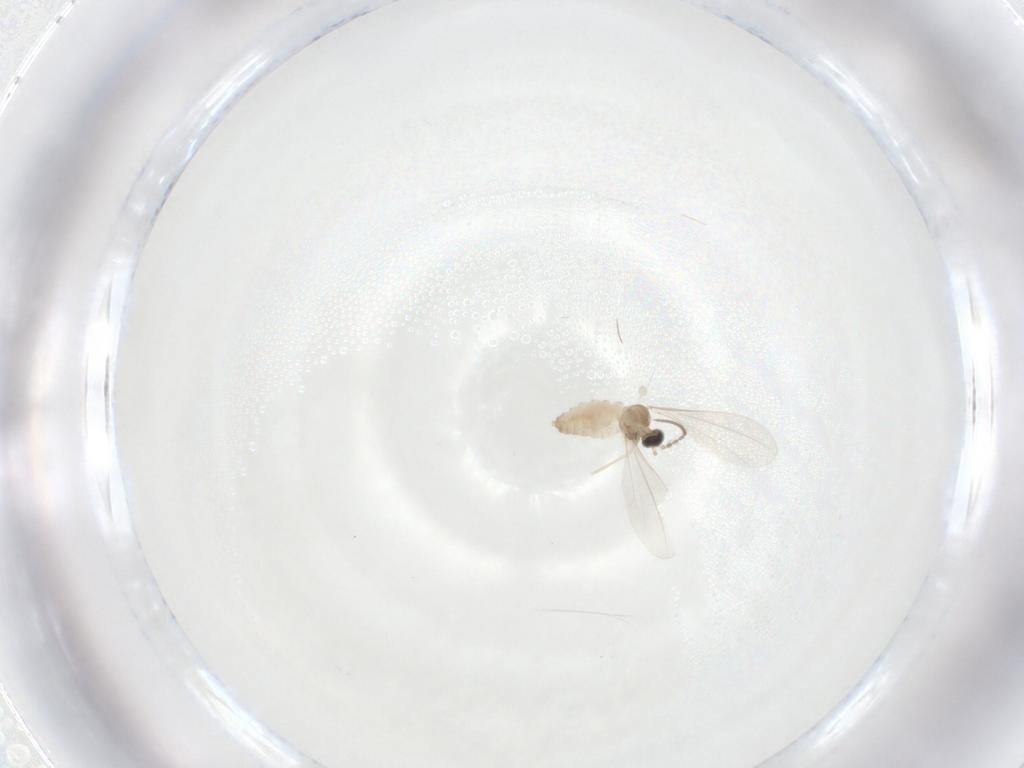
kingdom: Animalia
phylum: Arthropoda
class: Insecta
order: Diptera
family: Cecidomyiidae
